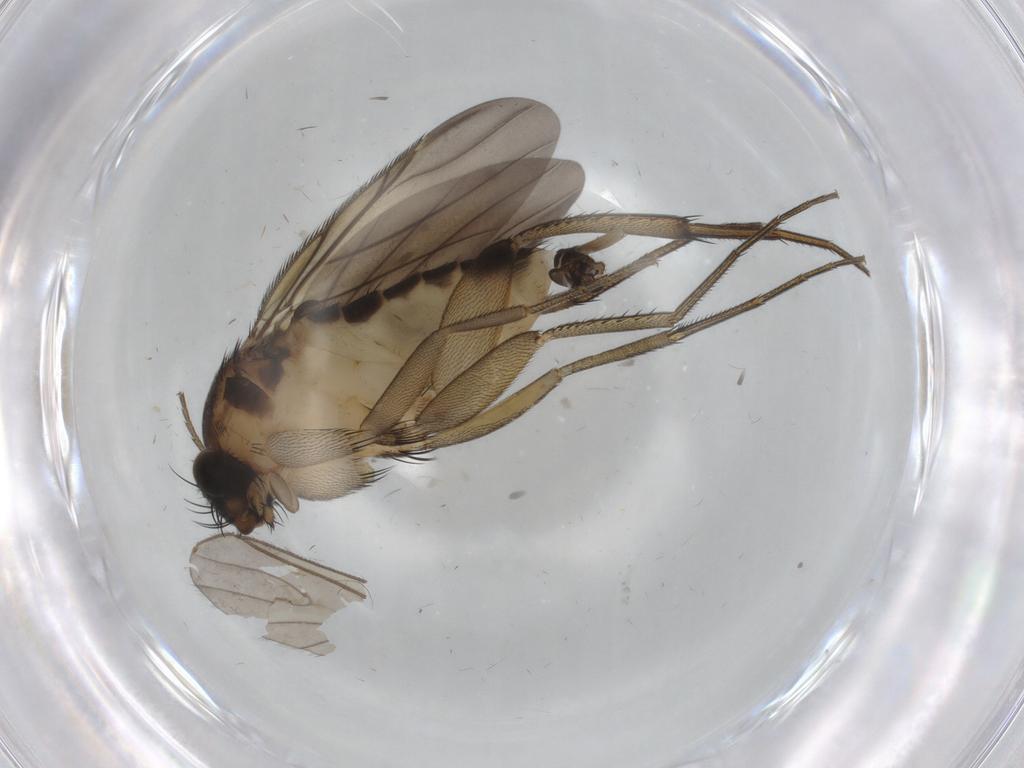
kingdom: Animalia
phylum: Arthropoda
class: Insecta
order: Diptera
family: Phoridae
